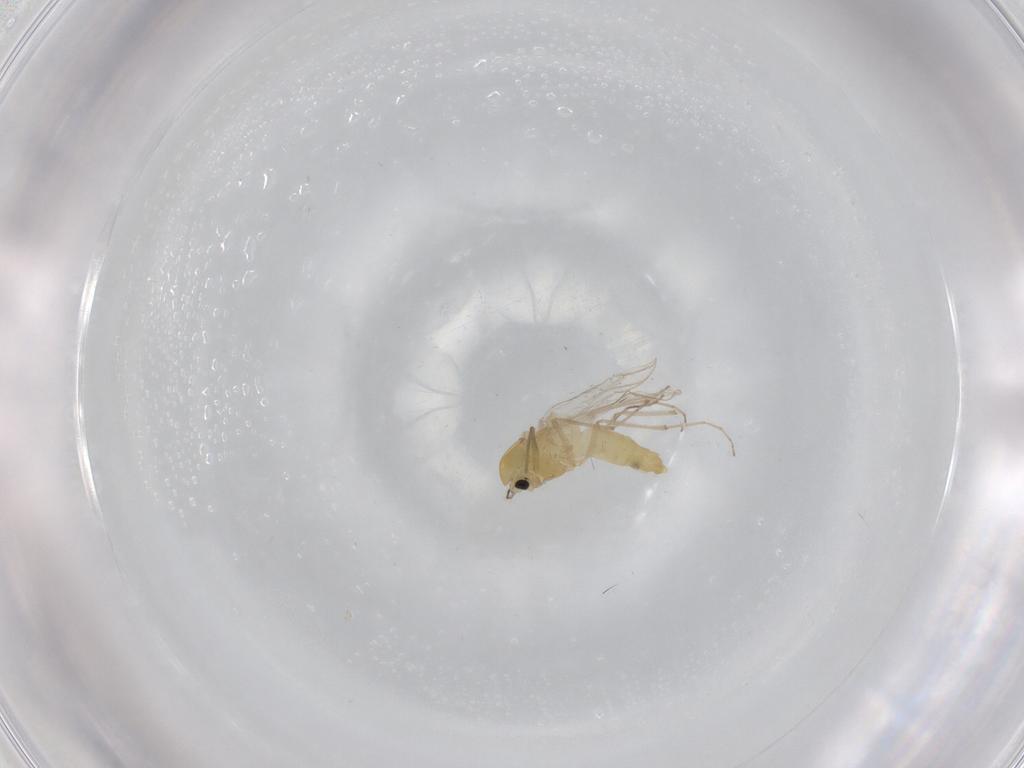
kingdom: Animalia
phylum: Arthropoda
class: Insecta
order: Diptera
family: Chironomidae
